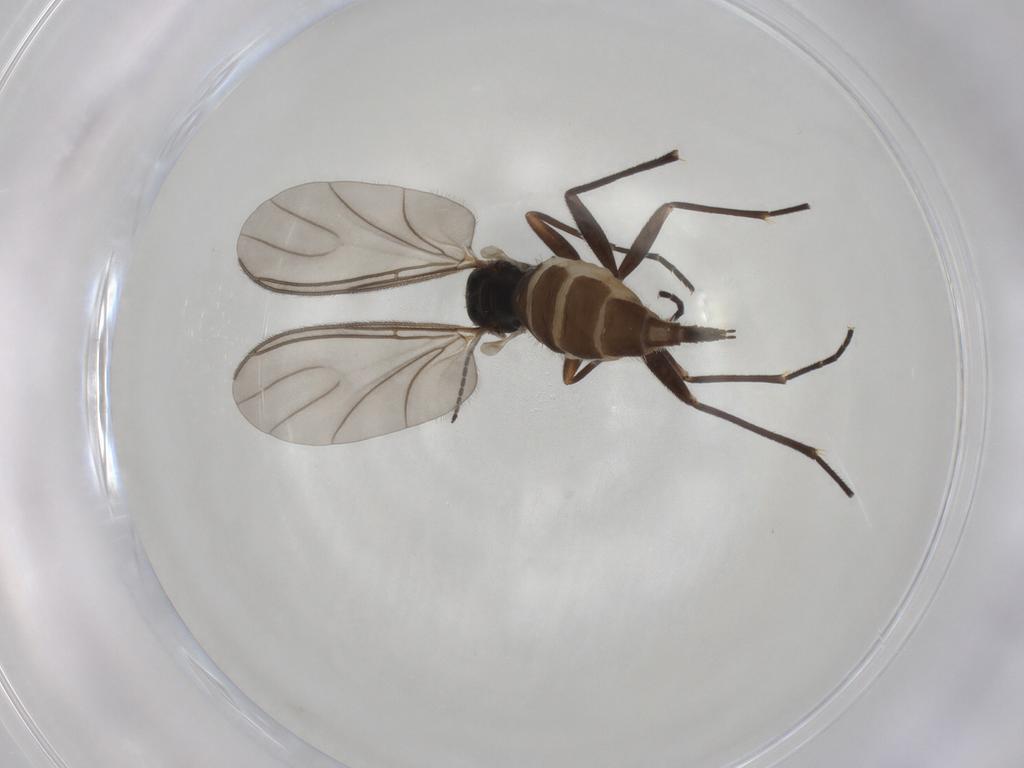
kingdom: Animalia
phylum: Arthropoda
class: Insecta
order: Diptera
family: Sciaridae
